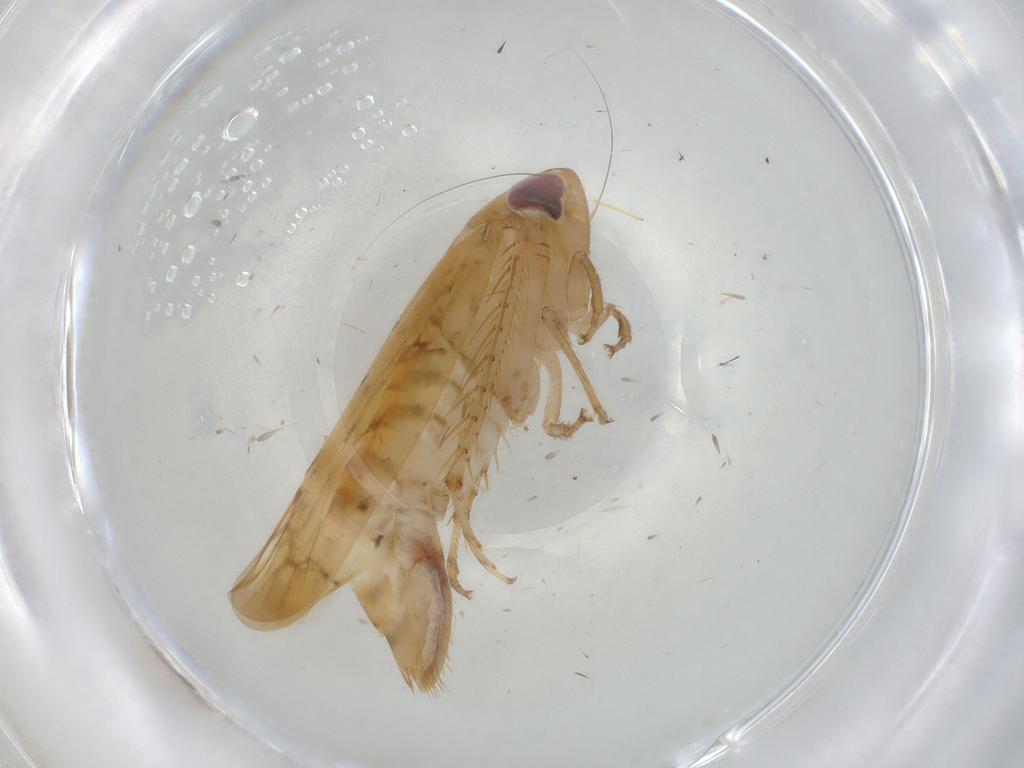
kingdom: Animalia
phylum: Arthropoda
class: Insecta
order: Hemiptera
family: Cicadellidae
